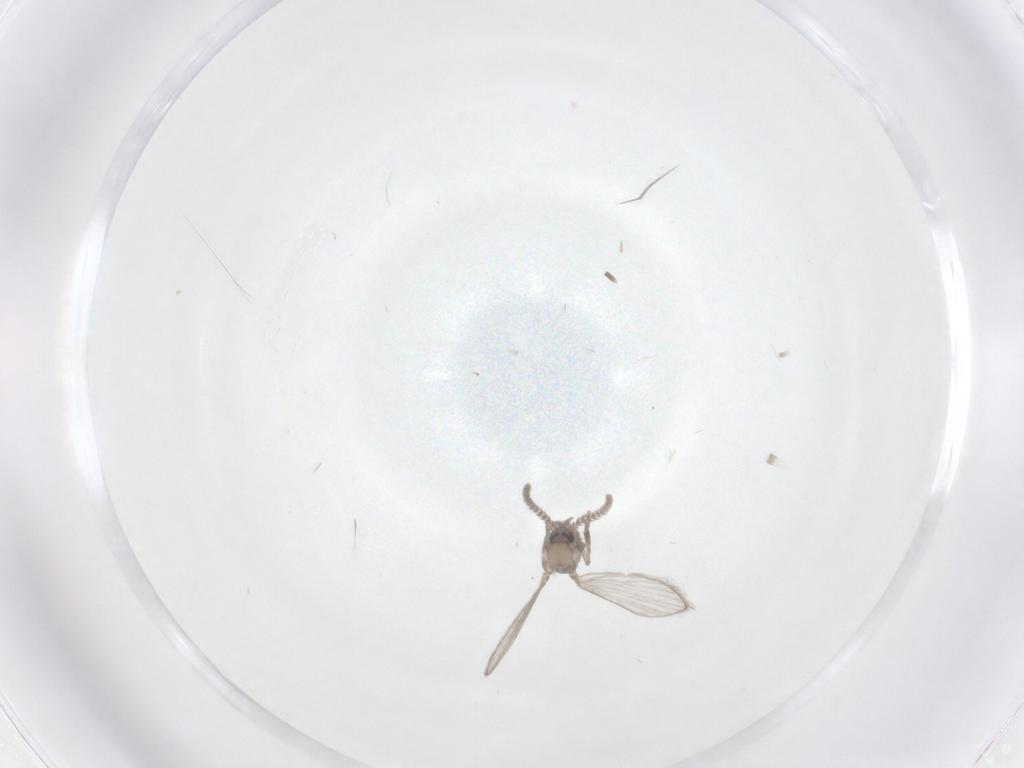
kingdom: Animalia
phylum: Arthropoda
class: Insecta
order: Diptera
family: Psychodidae
